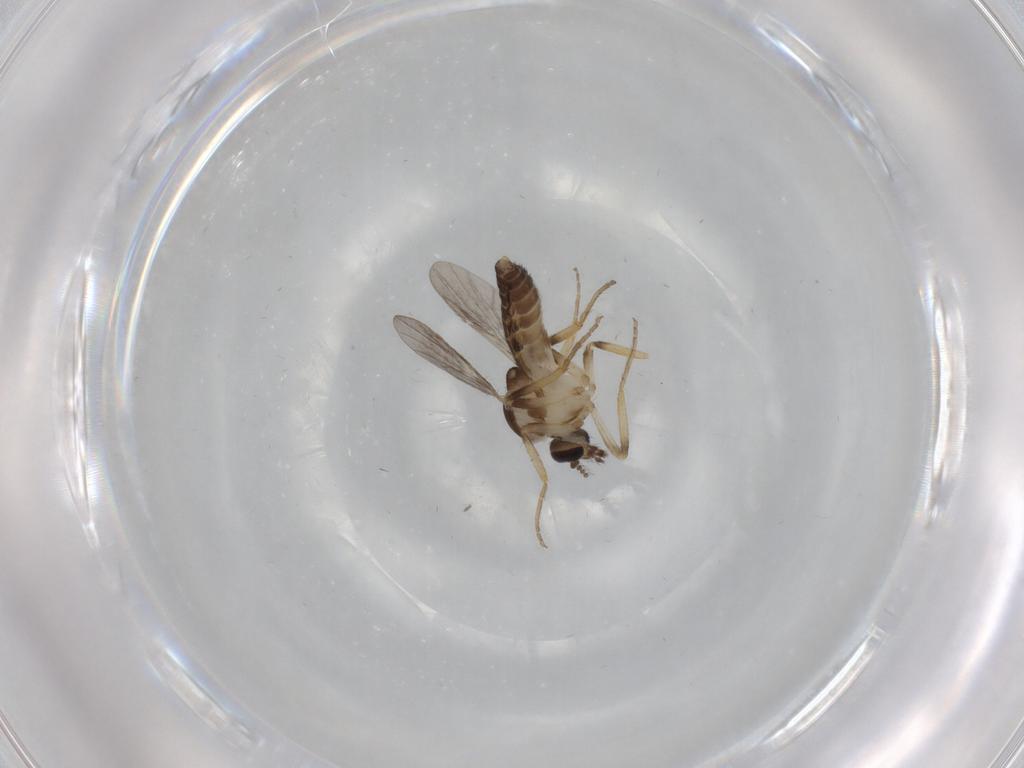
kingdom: Animalia
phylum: Arthropoda
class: Insecta
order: Diptera
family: Ceratopogonidae
